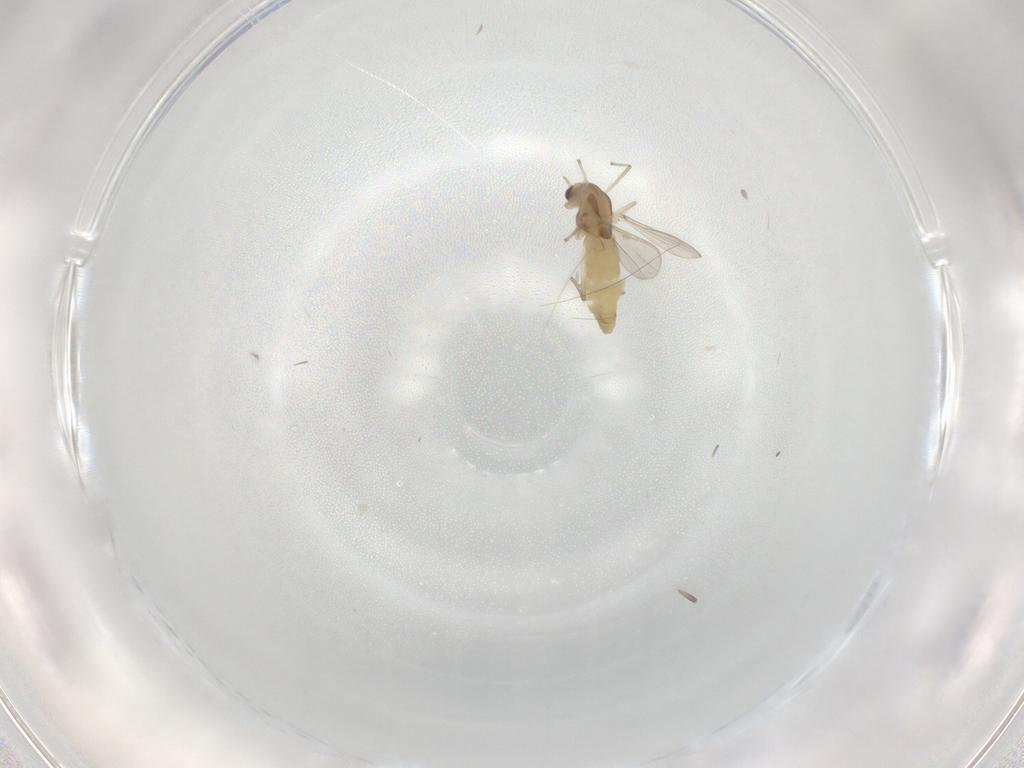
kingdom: Animalia
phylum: Arthropoda
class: Insecta
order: Diptera
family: Chironomidae
